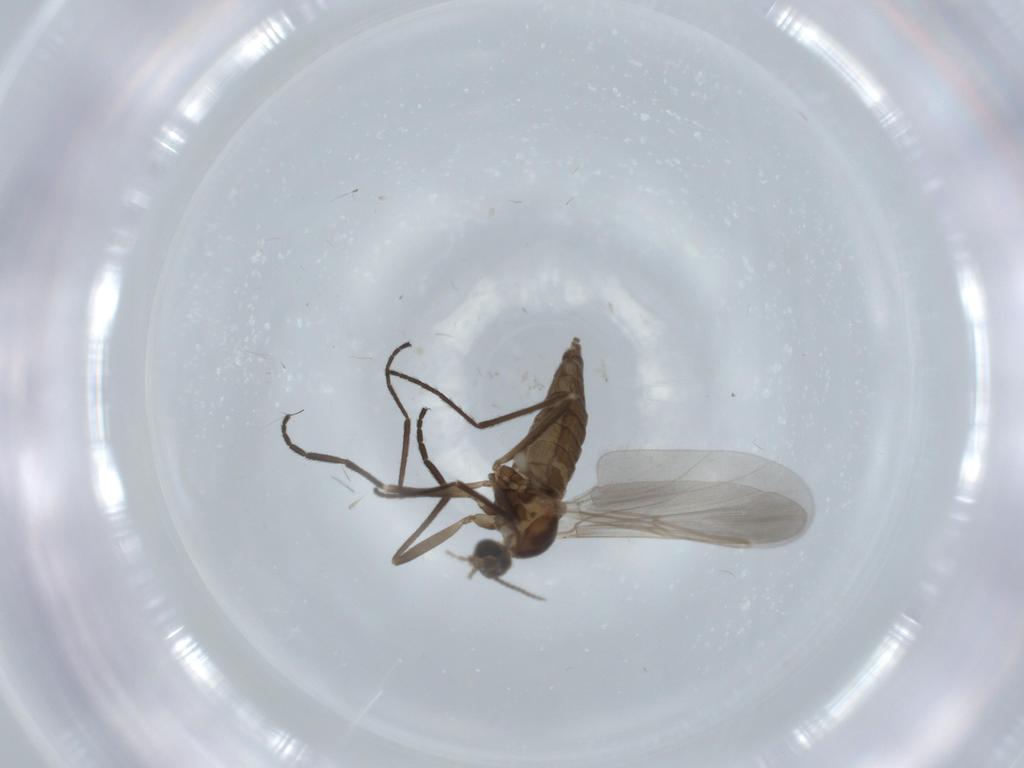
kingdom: Animalia
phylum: Arthropoda
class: Insecta
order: Diptera
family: Cecidomyiidae
